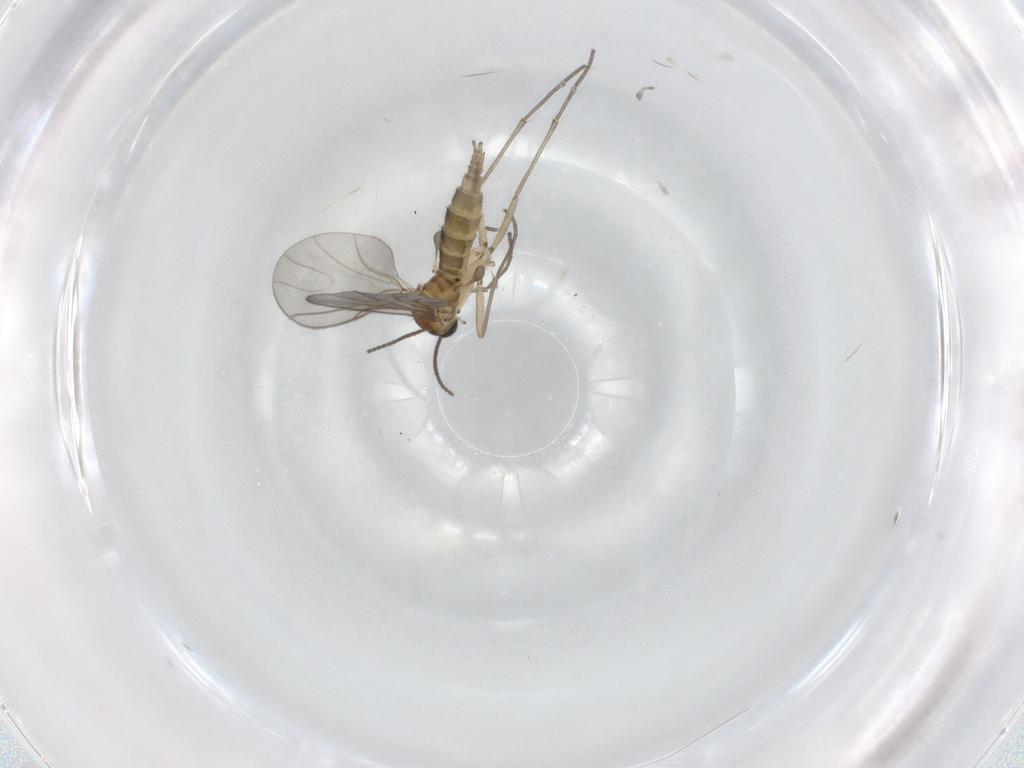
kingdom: Animalia
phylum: Arthropoda
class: Insecta
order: Diptera
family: Sciaridae
